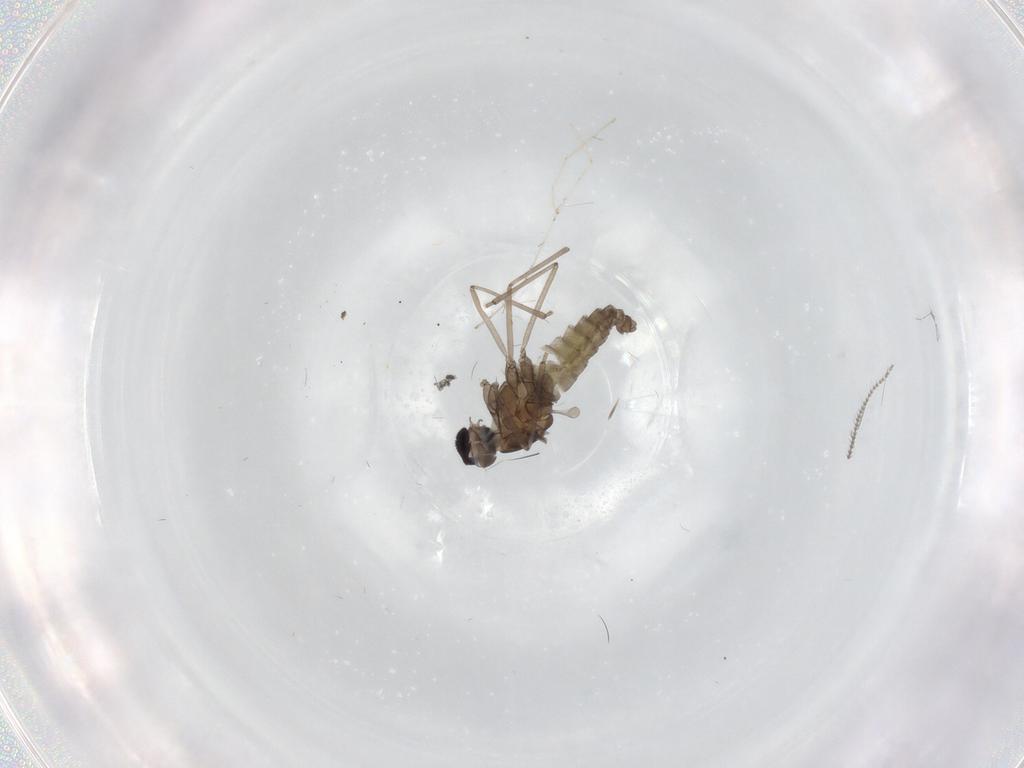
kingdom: Animalia
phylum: Arthropoda
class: Insecta
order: Diptera
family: Cecidomyiidae
